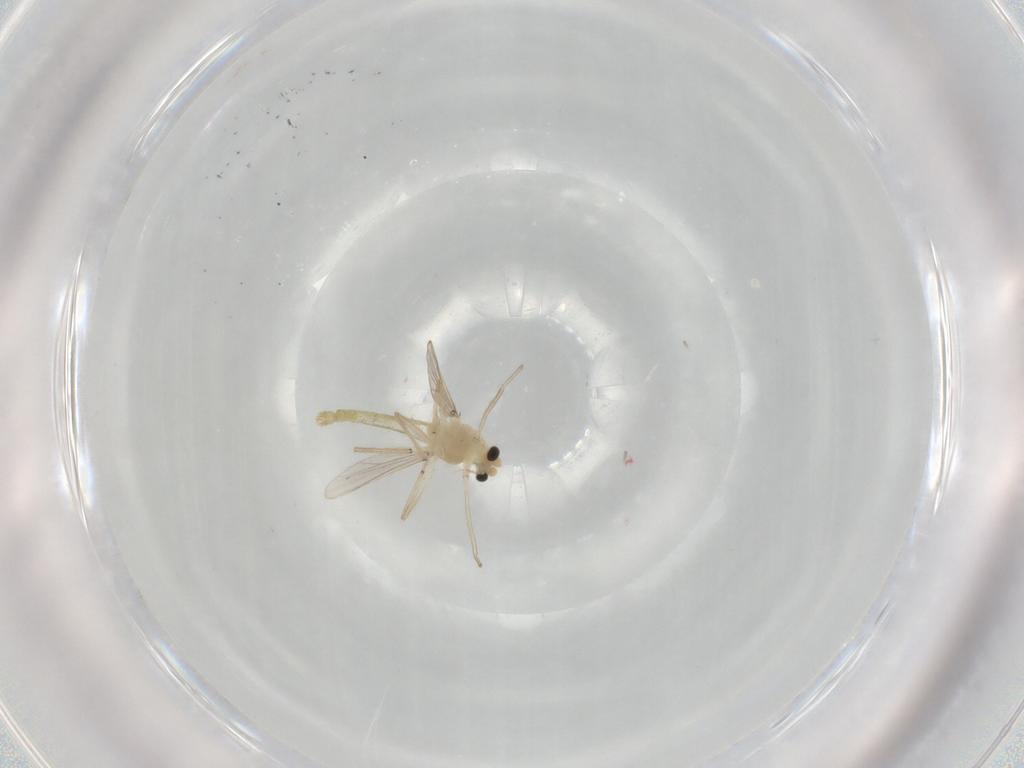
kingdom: Animalia
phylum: Arthropoda
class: Insecta
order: Diptera
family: Chironomidae
